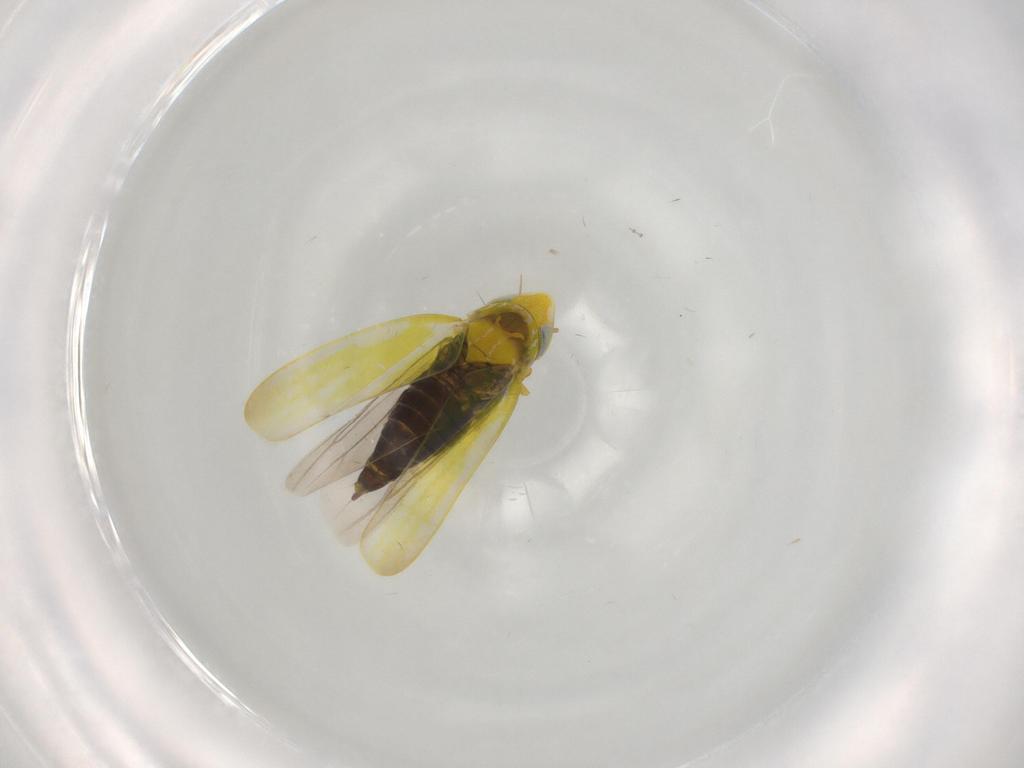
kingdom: Animalia
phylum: Arthropoda
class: Insecta
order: Hemiptera
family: Cicadellidae
